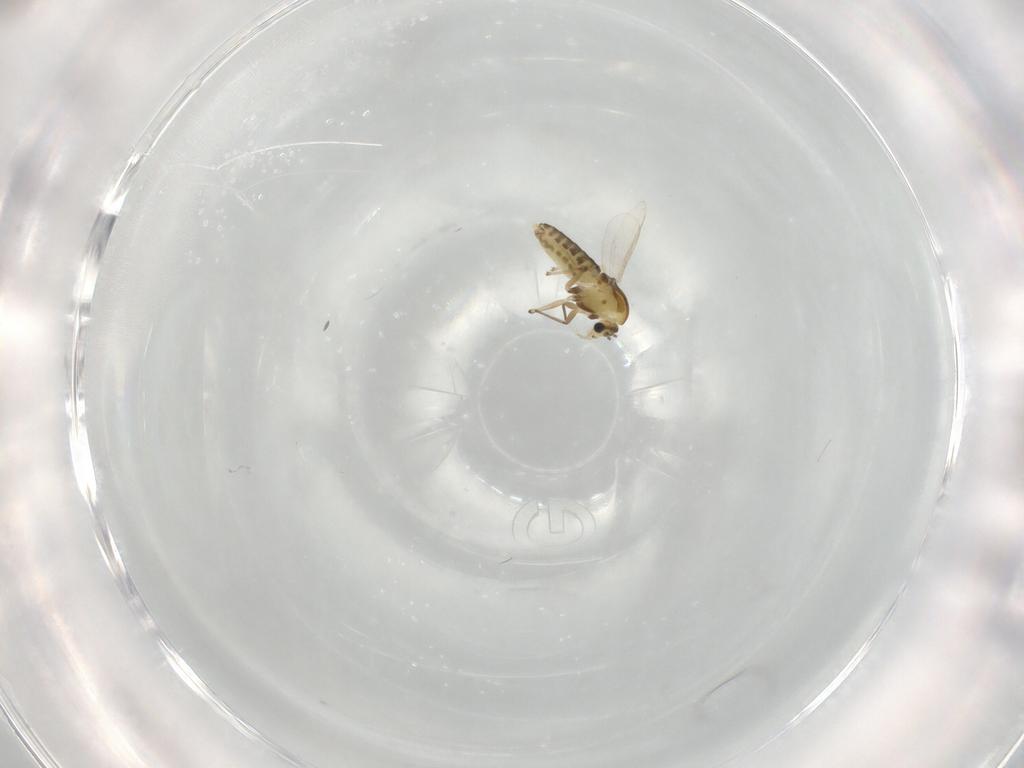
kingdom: Animalia
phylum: Arthropoda
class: Insecta
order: Diptera
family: Chironomidae
